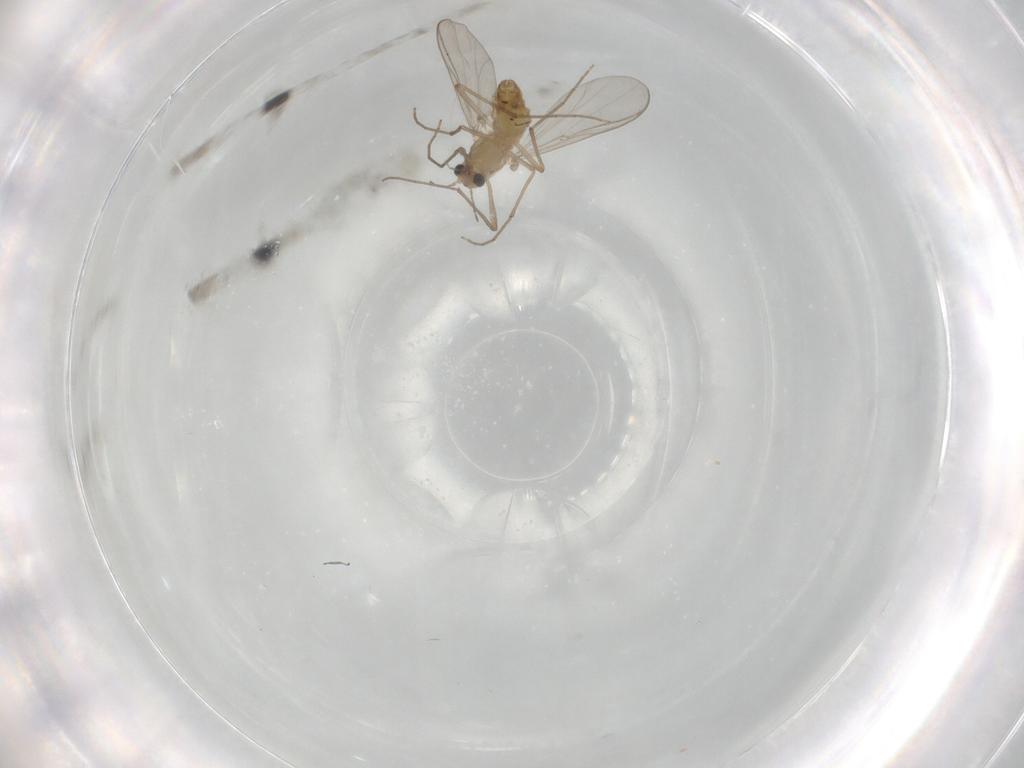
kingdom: Animalia
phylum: Arthropoda
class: Insecta
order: Diptera
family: Chironomidae
